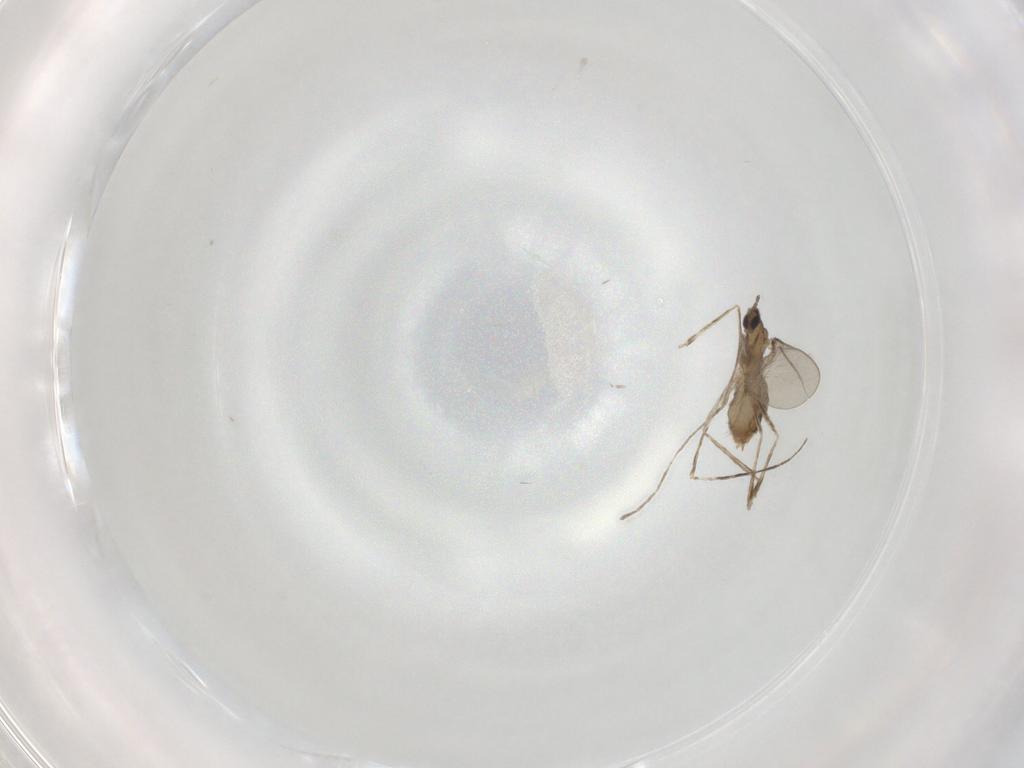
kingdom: Animalia
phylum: Arthropoda
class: Insecta
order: Diptera
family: Cecidomyiidae
